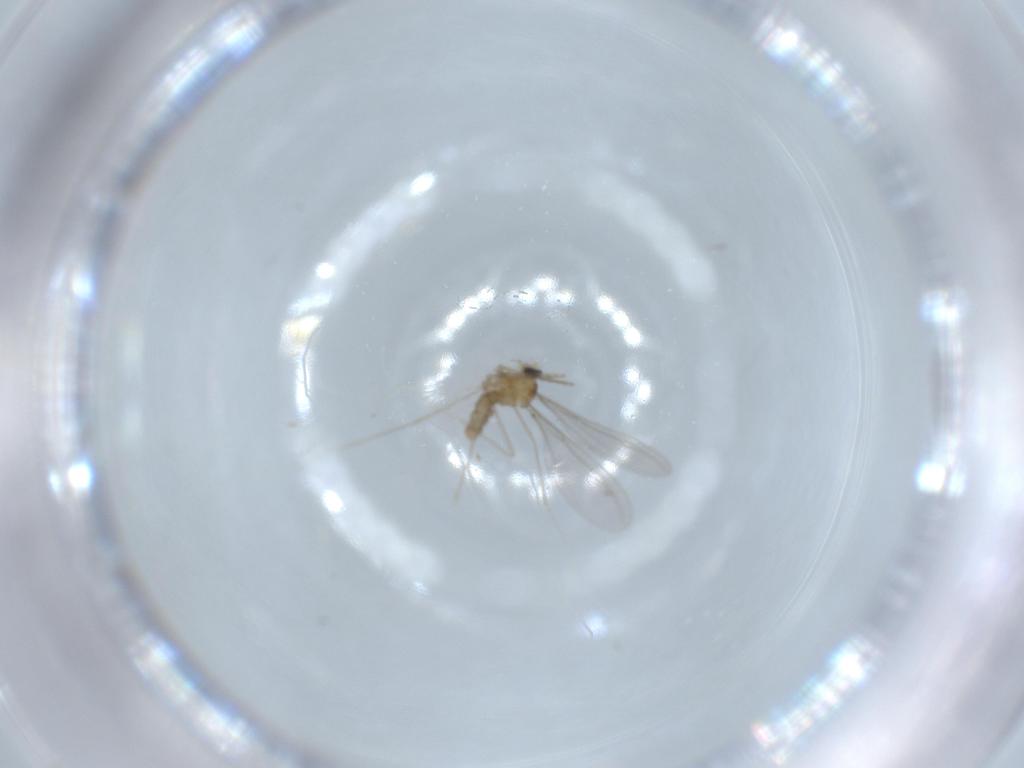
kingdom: Animalia
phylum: Arthropoda
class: Insecta
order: Diptera
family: Cecidomyiidae
